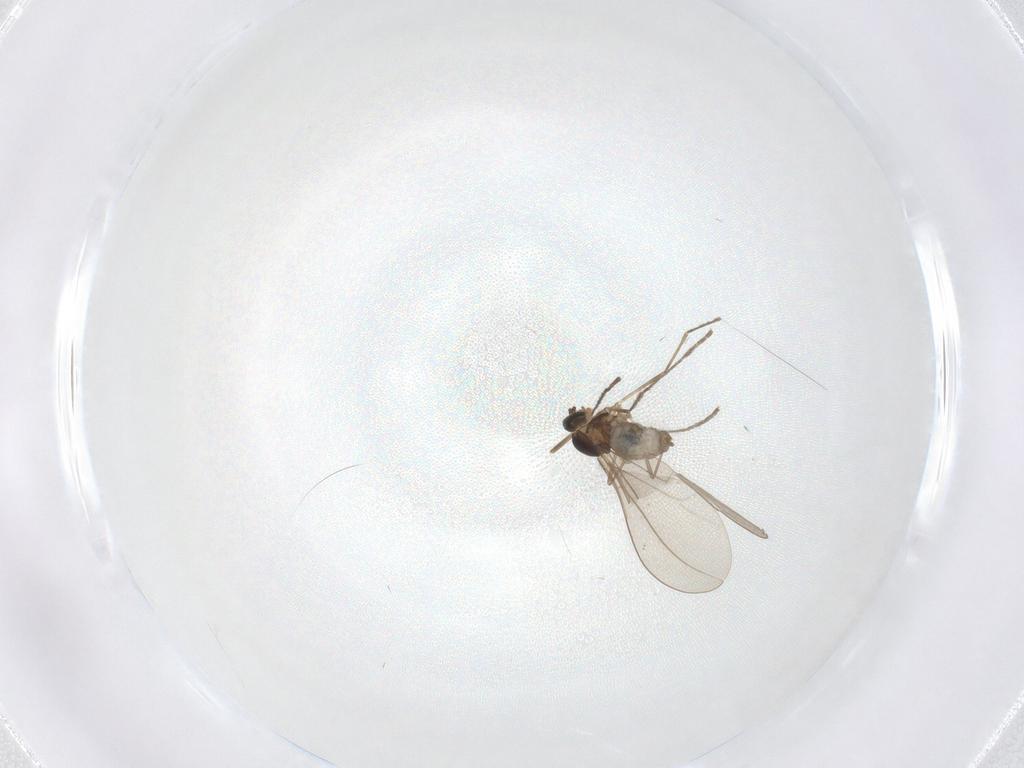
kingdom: Animalia
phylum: Arthropoda
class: Insecta
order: Diptera
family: Cecidomyiidae
